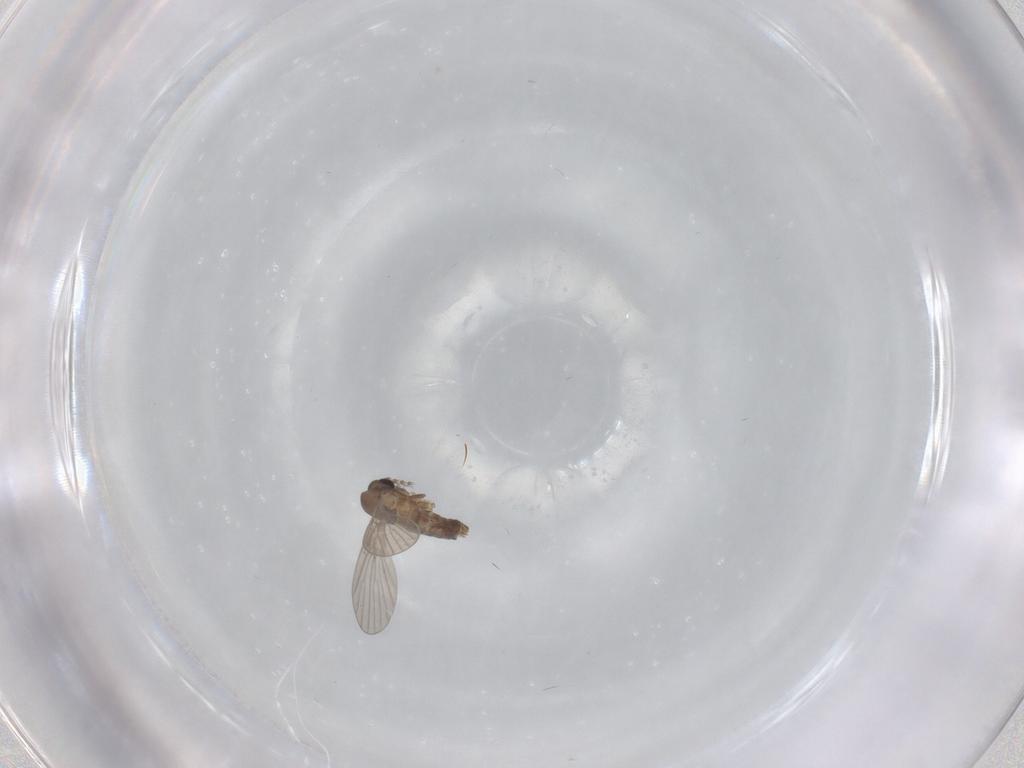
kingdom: Animalia
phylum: Arthropoda
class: Insecta
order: Diptera
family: Psychodidae
